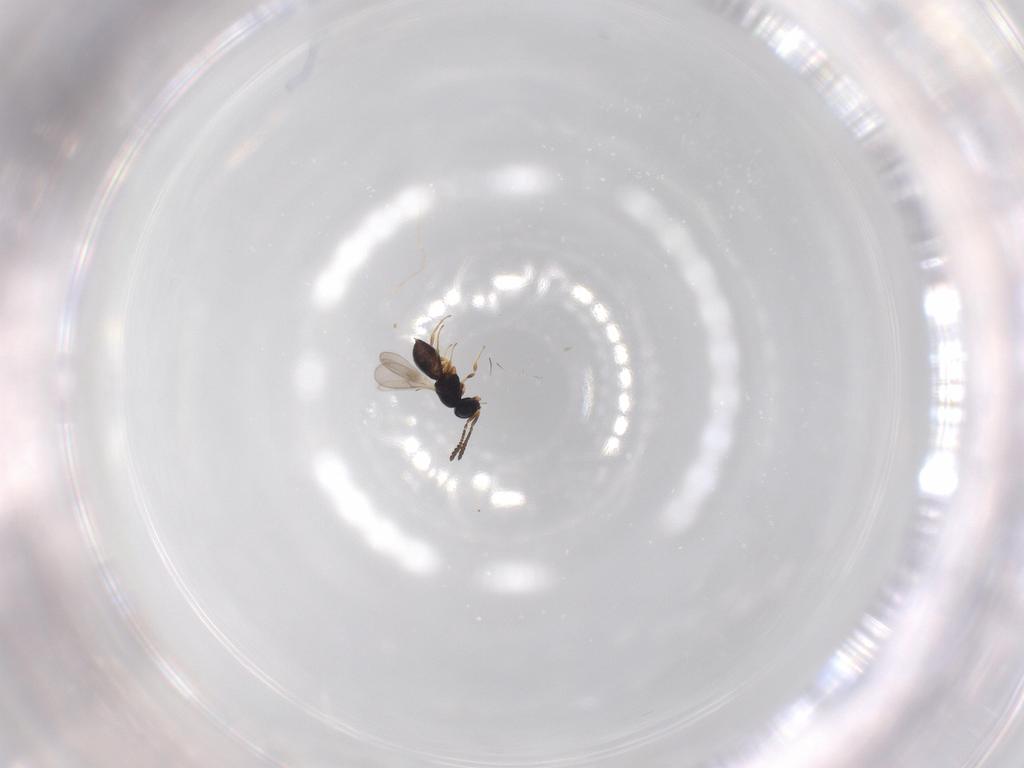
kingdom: Animalia
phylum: Arthropoda
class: Insecta
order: Hymenoptera
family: Scelionidae
